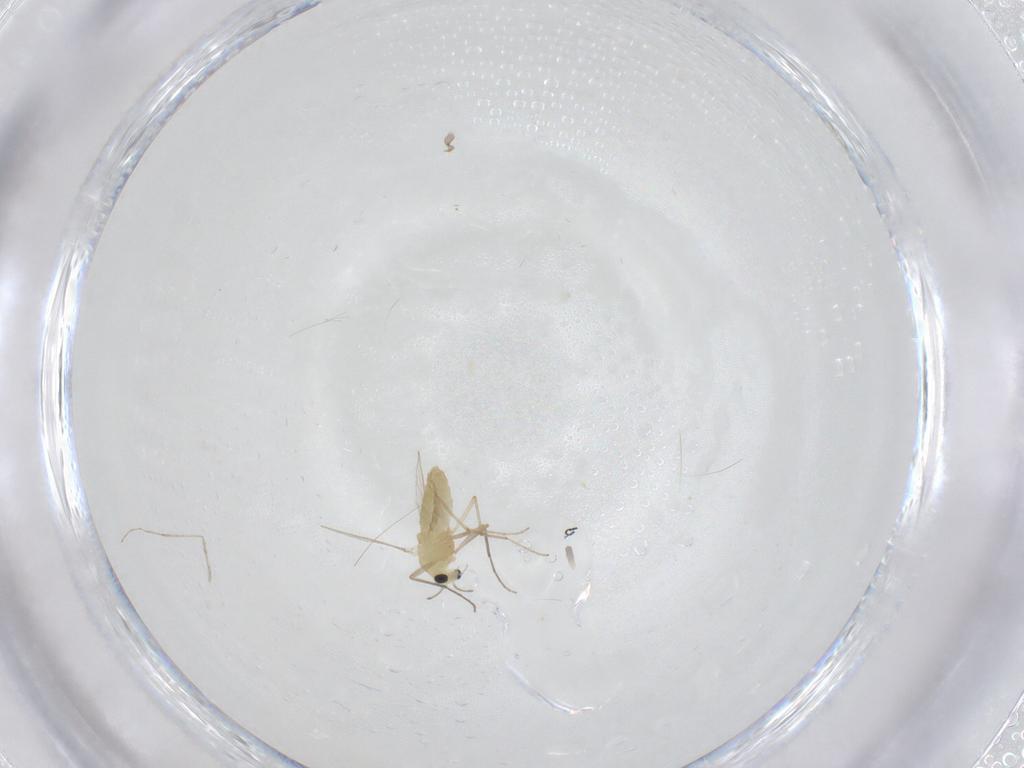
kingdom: Animalia
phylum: Arthropoda
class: Insecta
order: Diptera
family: Chironomidae
